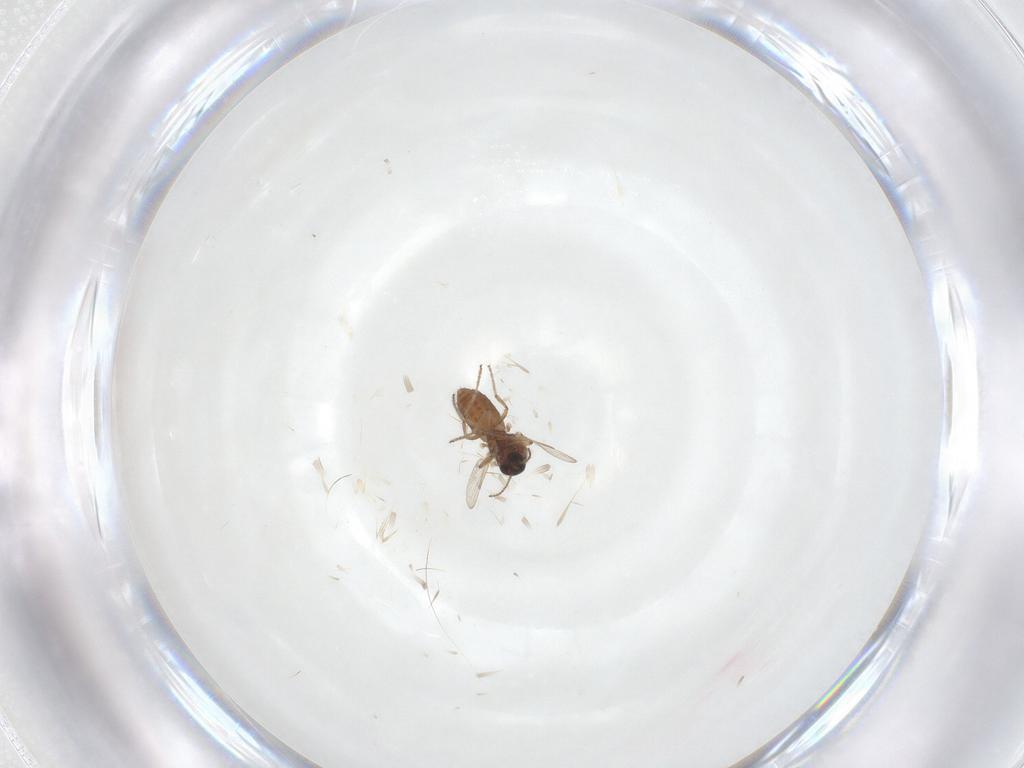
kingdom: Animalia
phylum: Arthropoda
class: Insecta
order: Diptera
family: Ceratopogonidae
